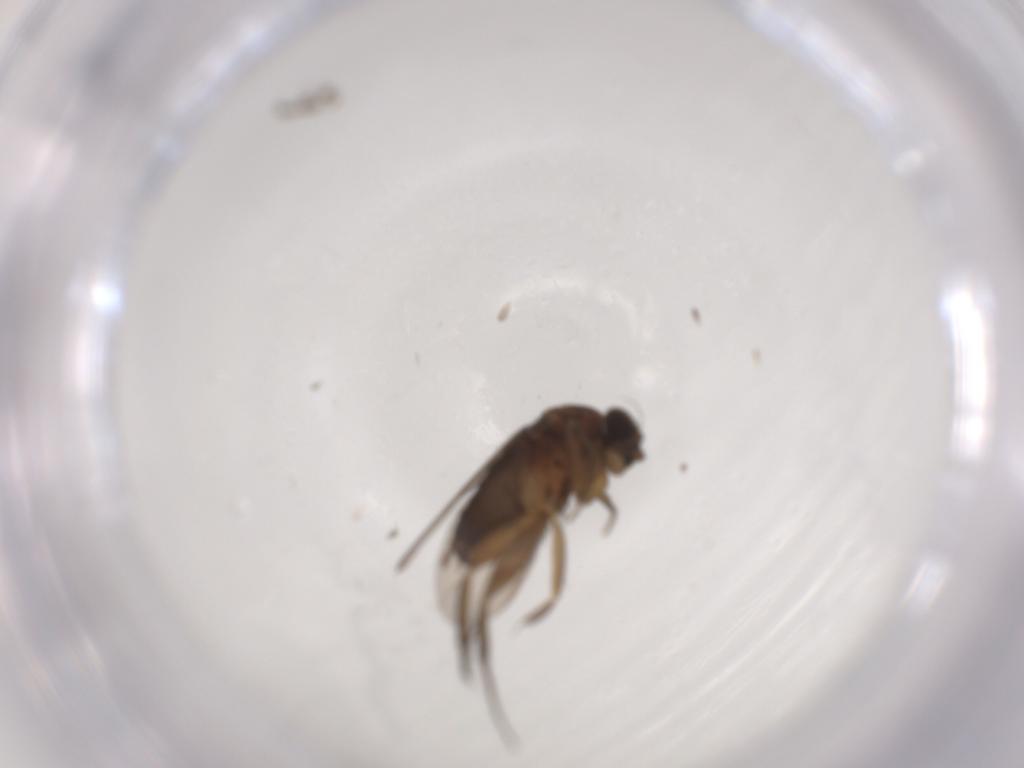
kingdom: Animalia
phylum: Arthropoda
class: Insecta
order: Diptera
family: Phoridae
